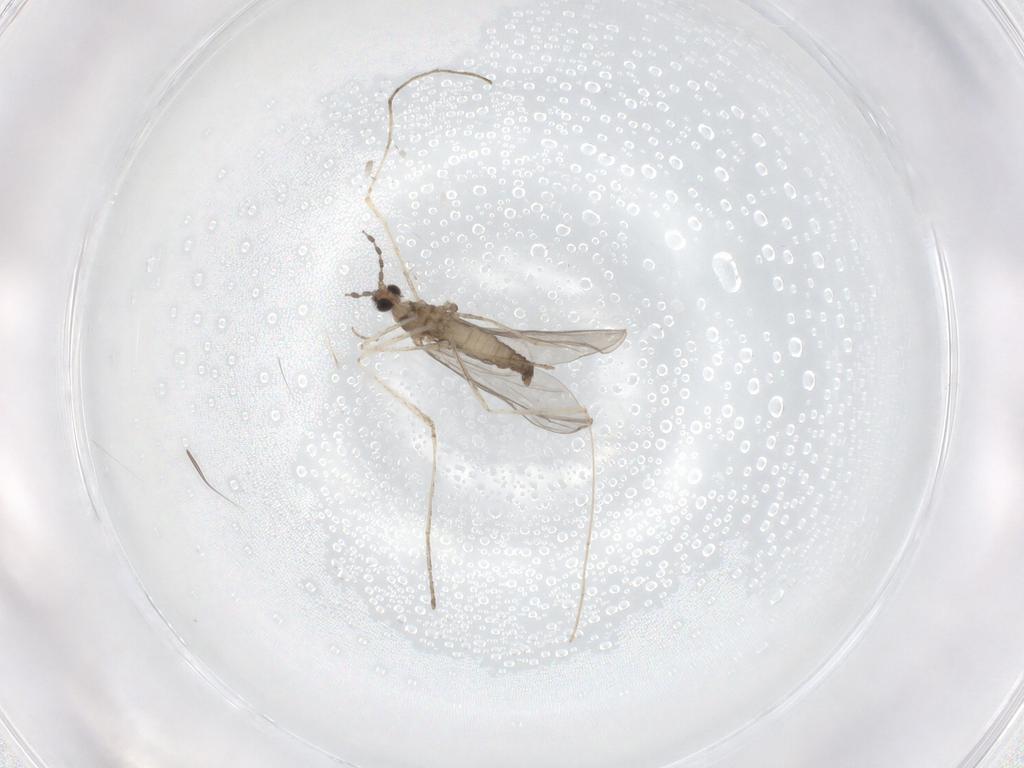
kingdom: Animalia
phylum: Arthropoda
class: Insecta
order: Diptera
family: Cecidomyiidae
